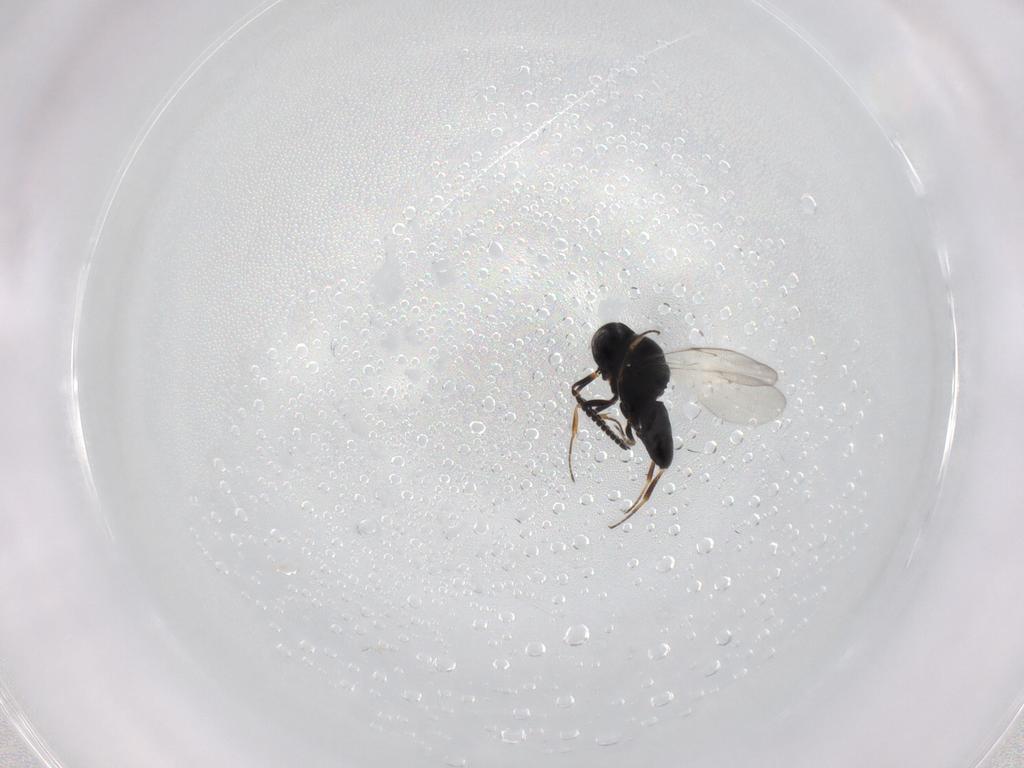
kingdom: Animalia
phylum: Arthropoda
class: Insecta
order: Hymenoptera
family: Scelionidae
